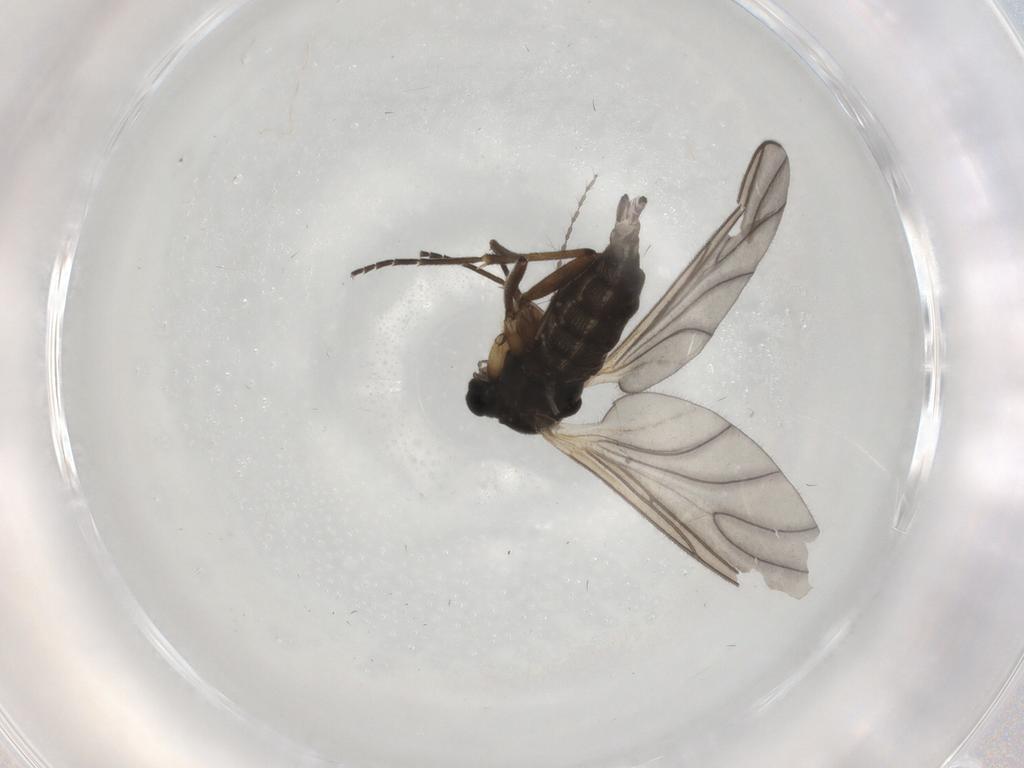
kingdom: Animalia
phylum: Arthropoda
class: Insecta
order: Diptera
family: Sciaridae
